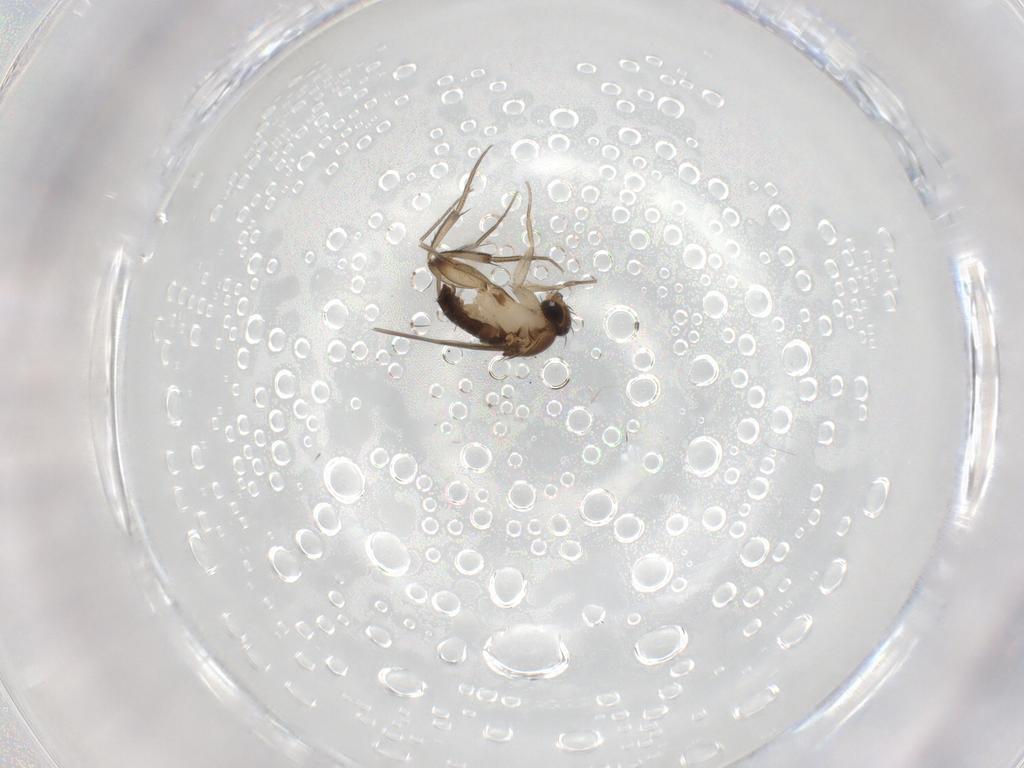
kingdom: Animalia
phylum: Arthropoda
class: Insecta
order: Diptera
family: Phoridae
